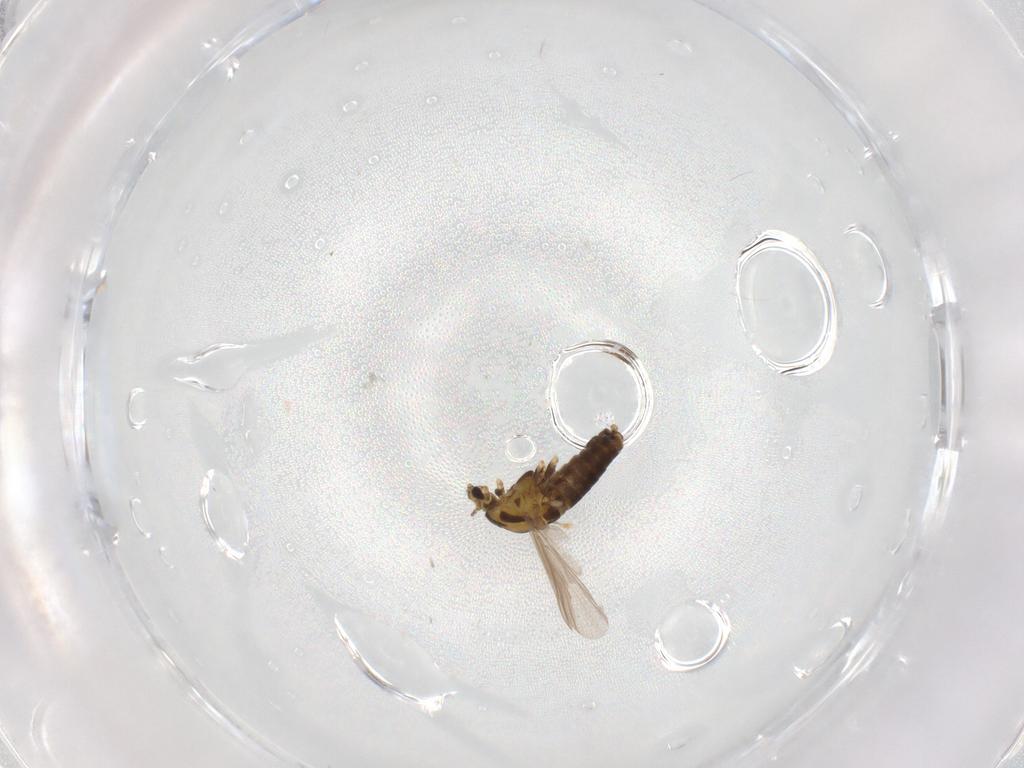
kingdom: Animalia
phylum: Arthropoda
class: Insecta
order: Diptera
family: Chironomidae
